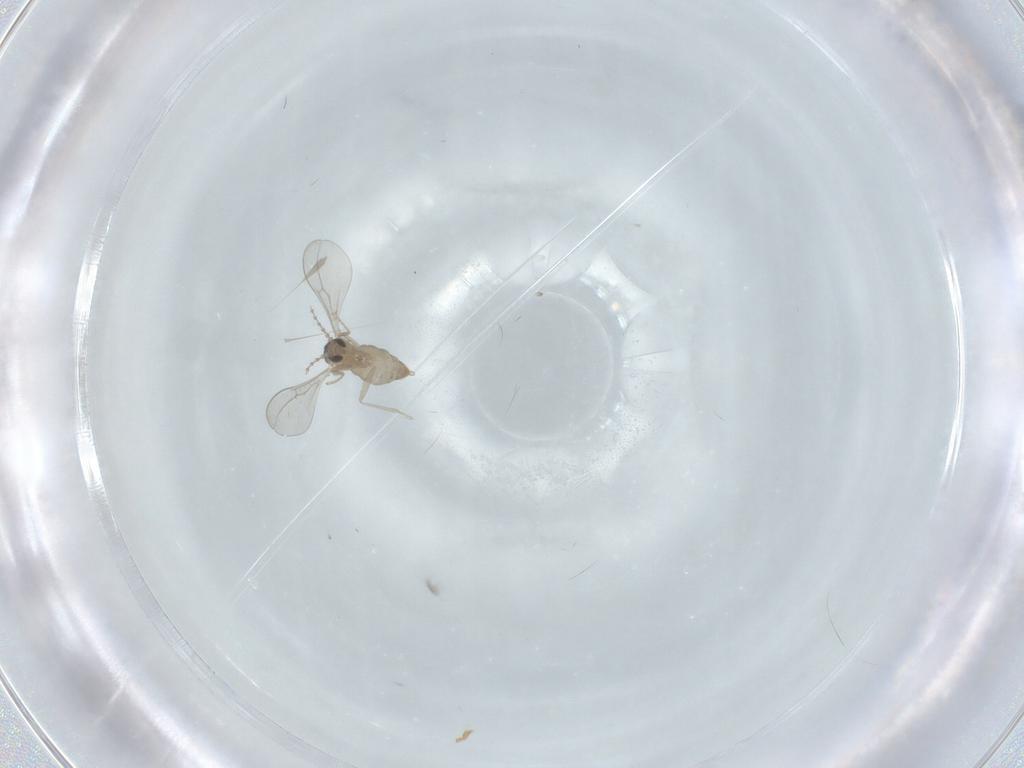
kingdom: Animalia
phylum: Arthropoda
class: Insecta
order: Diptera
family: Cecidomyiidae
